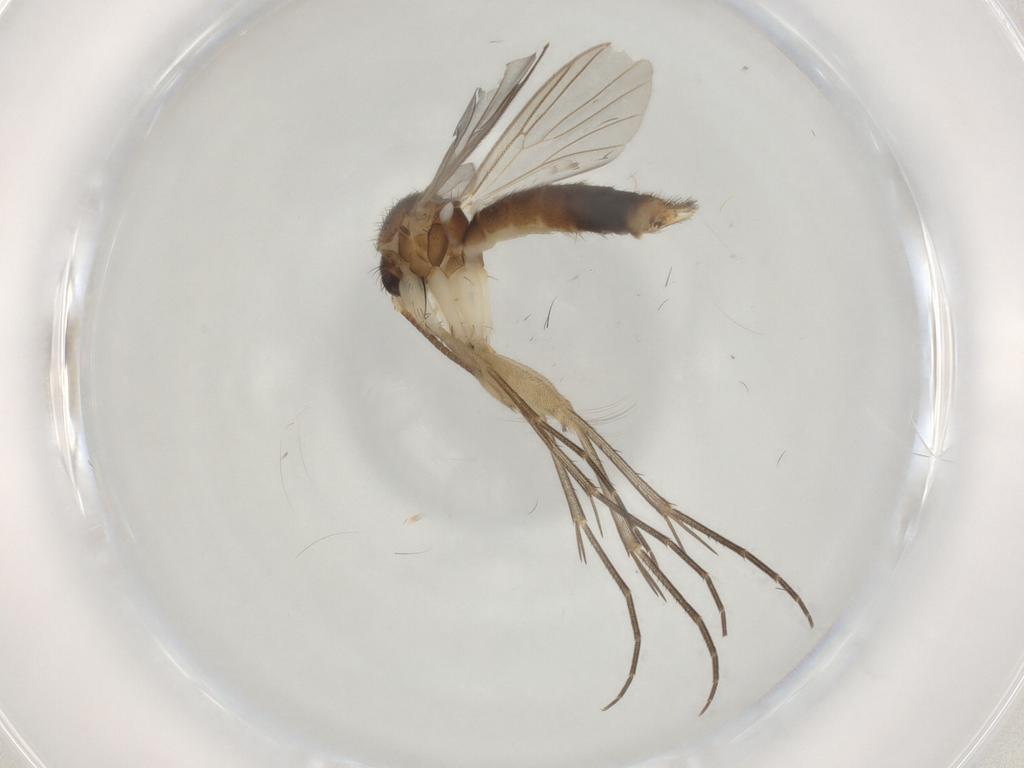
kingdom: Animalia
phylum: Arthropoda
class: Insecta
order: Diptera
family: Mycetophilidae
